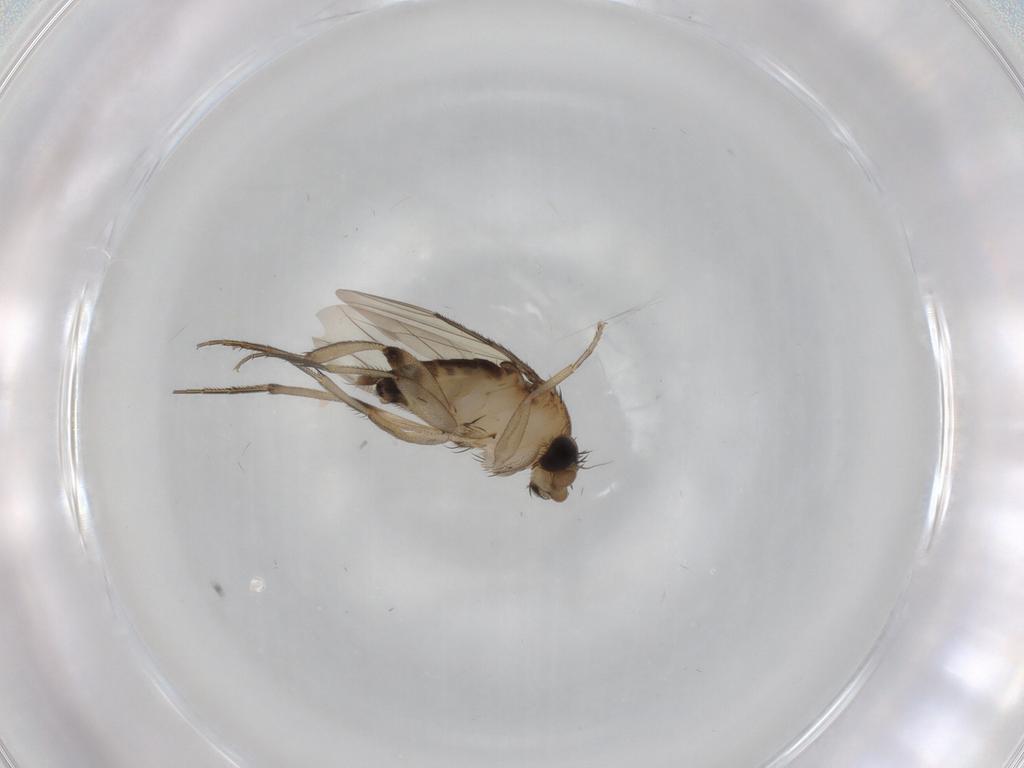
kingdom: Animalia
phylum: Arthropoda
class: Insecta
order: Diptera
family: Phoridae
